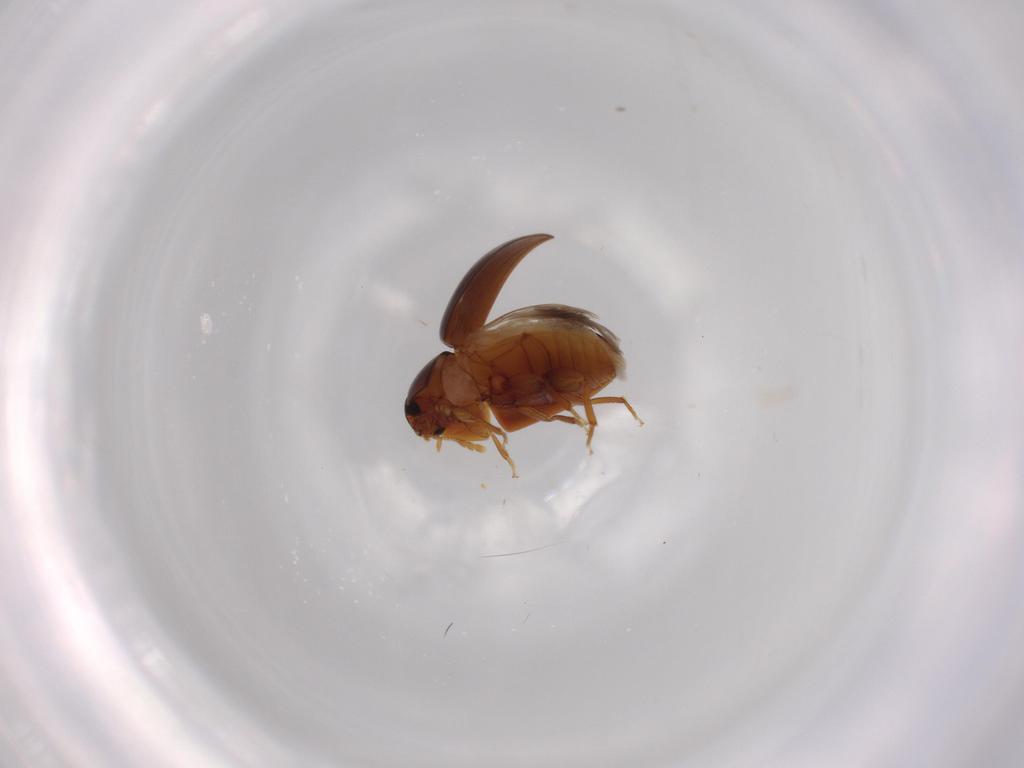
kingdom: Animalia
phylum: Arthropoda
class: Insecta
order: Coleoptera
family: Phalacridae
